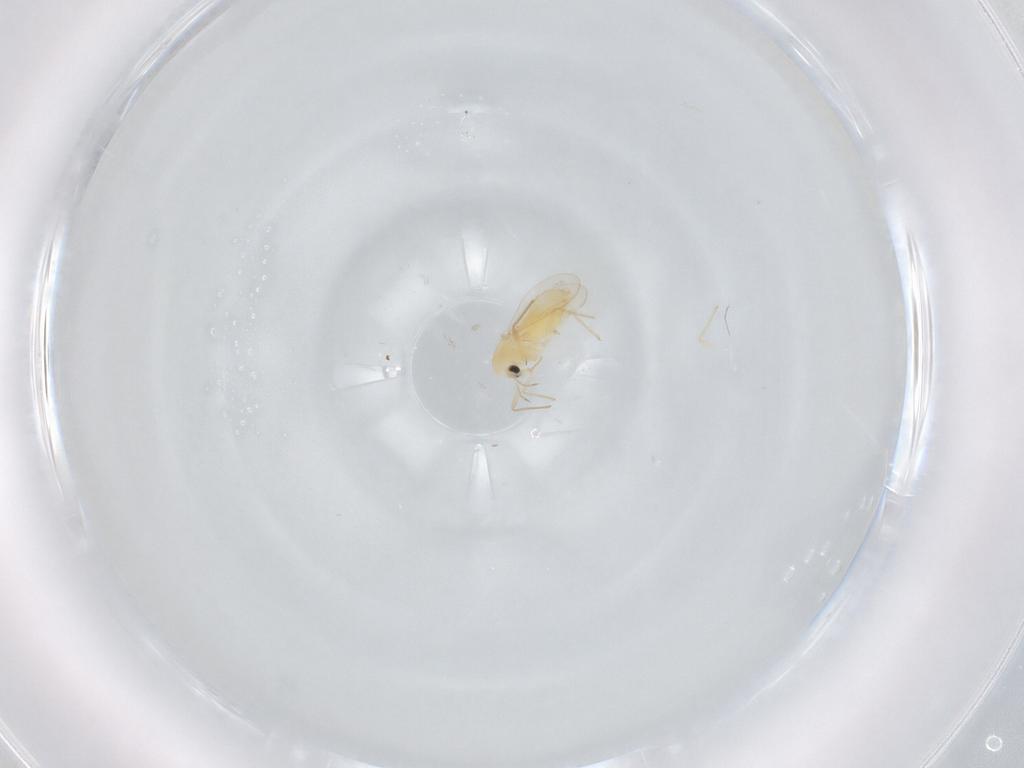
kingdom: Animalia
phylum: Arthropoda
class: Insecta
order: Diptera
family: Chironomidae
